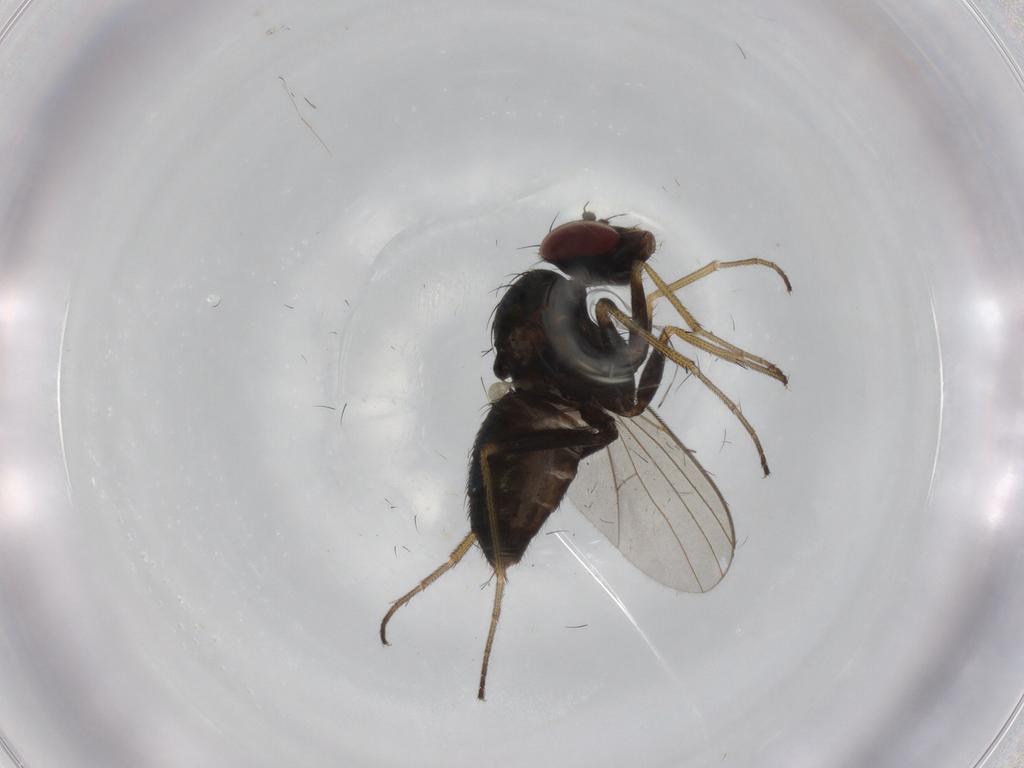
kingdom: Animalia
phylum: Arthropoda
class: Insecta
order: Diptera
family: Dolichopodidae
